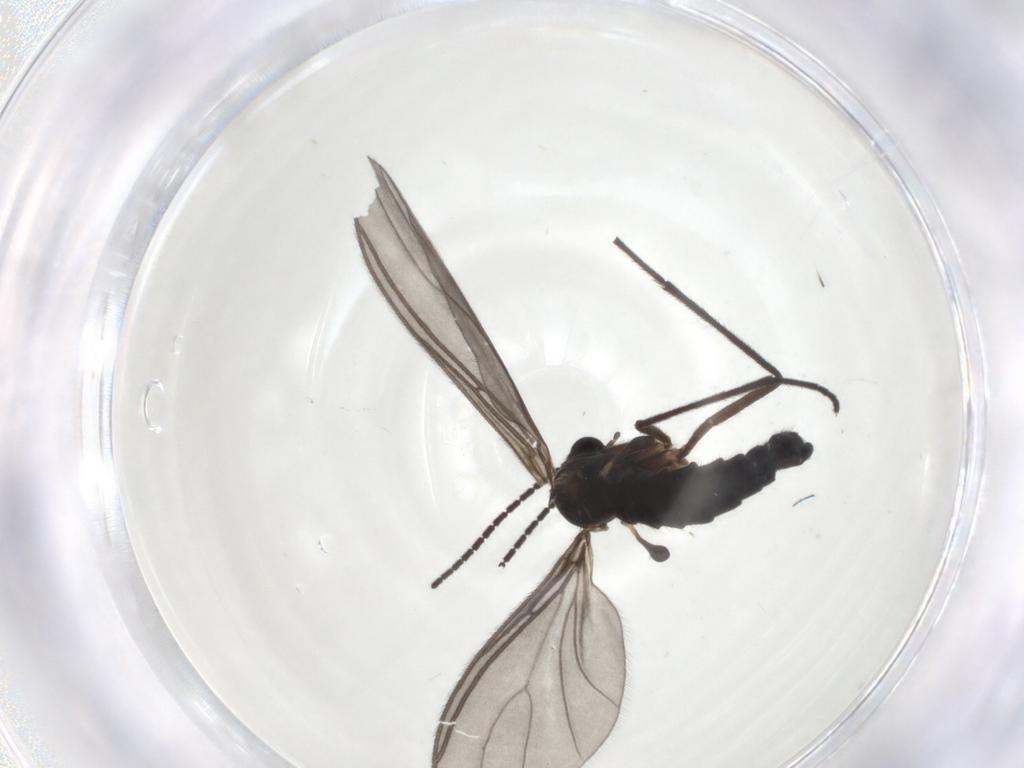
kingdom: Animalia
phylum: Arthropoda
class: Insecta
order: Diptera
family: Sciaridae
